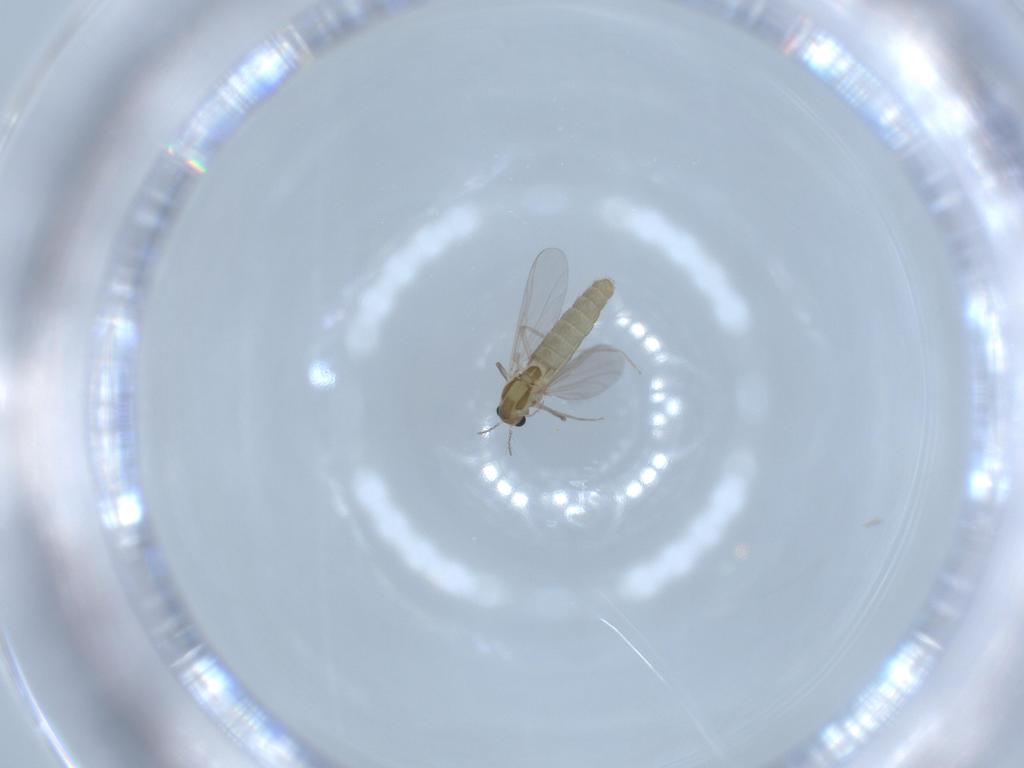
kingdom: Animalia
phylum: Arthropoda
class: Insecta
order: Diptera
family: Chironomidae
